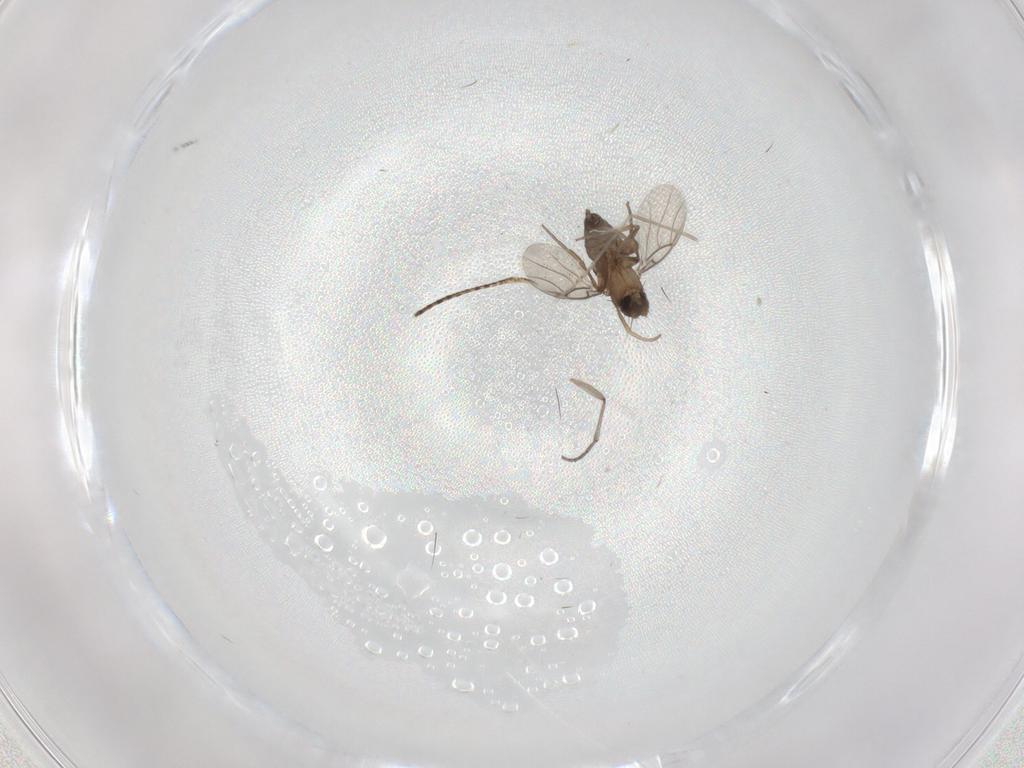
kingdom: Animalia
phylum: Arthropoda
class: Insecta
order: Diptera
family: Phoridae
